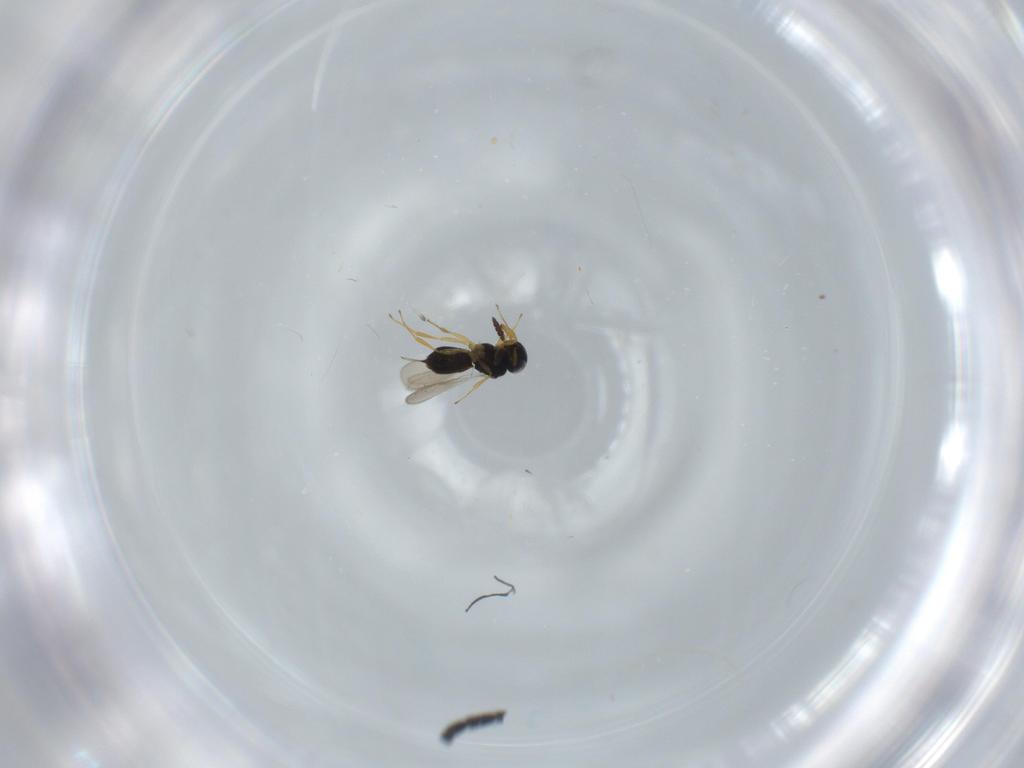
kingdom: Animalia
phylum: Arthropoda
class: Insecta
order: Hymenoptera
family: Scelionidae
